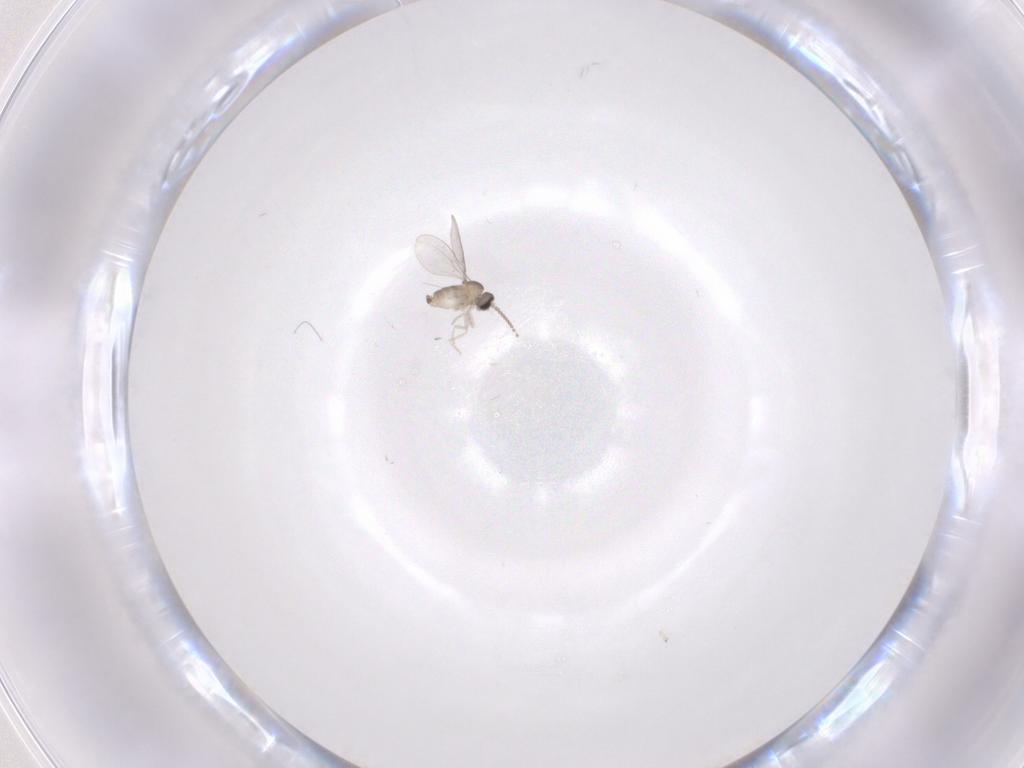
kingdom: Animalia
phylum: Arthropoda
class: Insecta
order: Diptera
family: Cecidomyiidae
